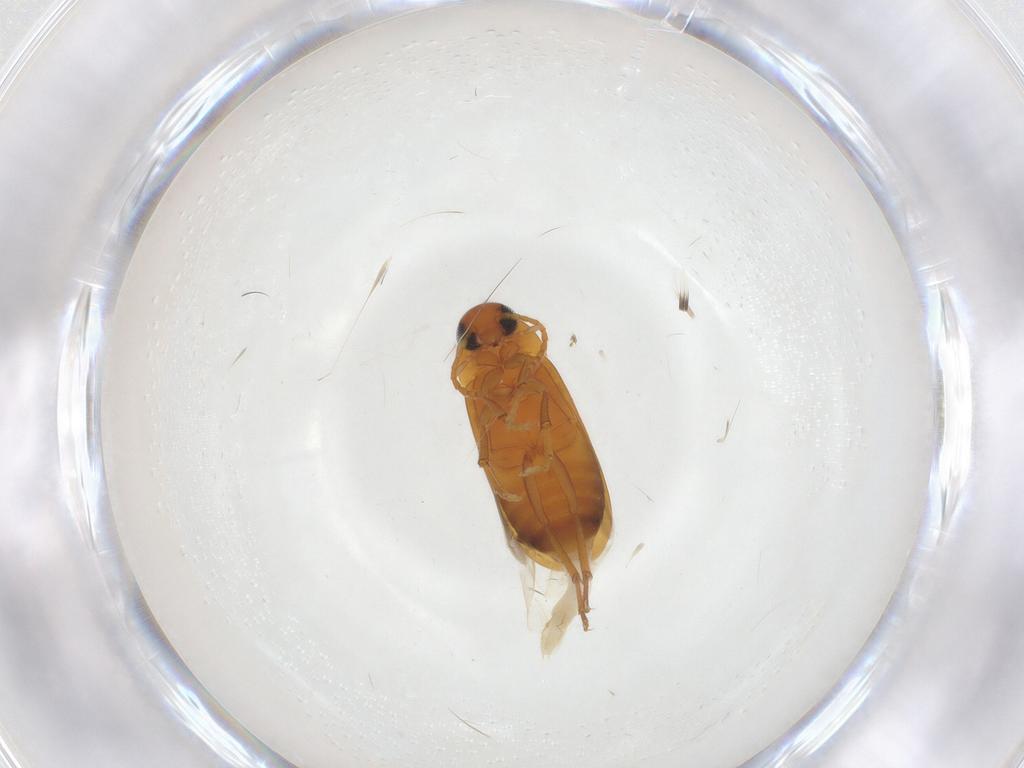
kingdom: Animalia
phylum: Arthropoda
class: Insecta
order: Coleoptera
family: Scraptiidae
